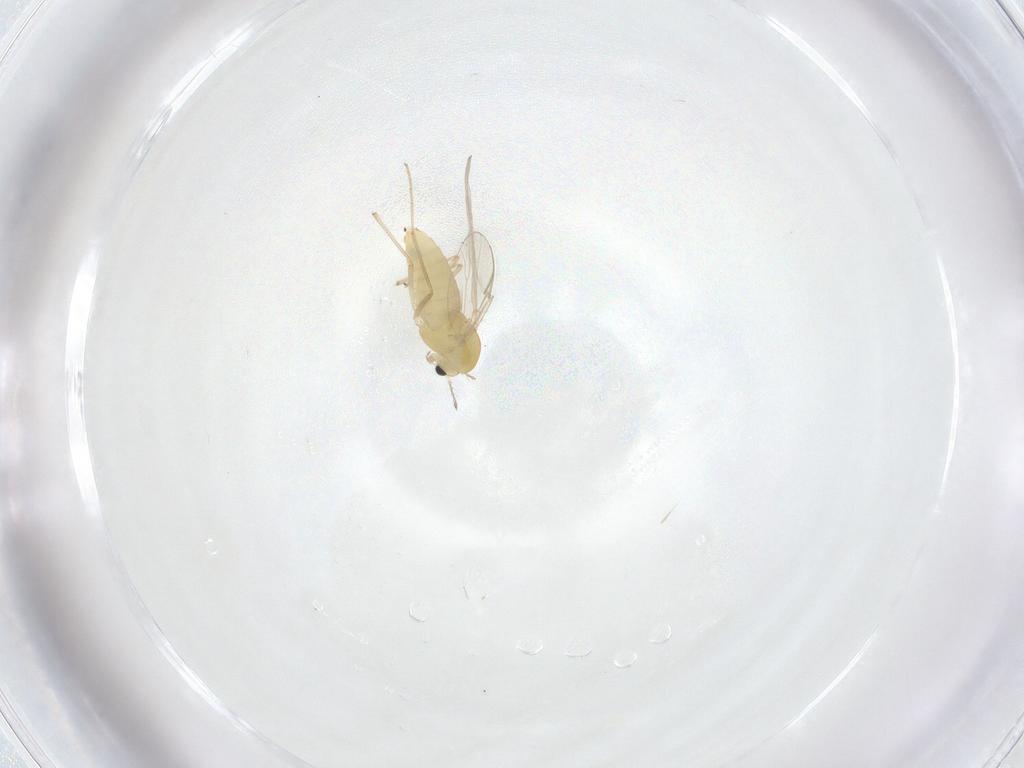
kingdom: Animalia
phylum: Arthropoda
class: Insecta
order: Diptera
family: Chironomidae
